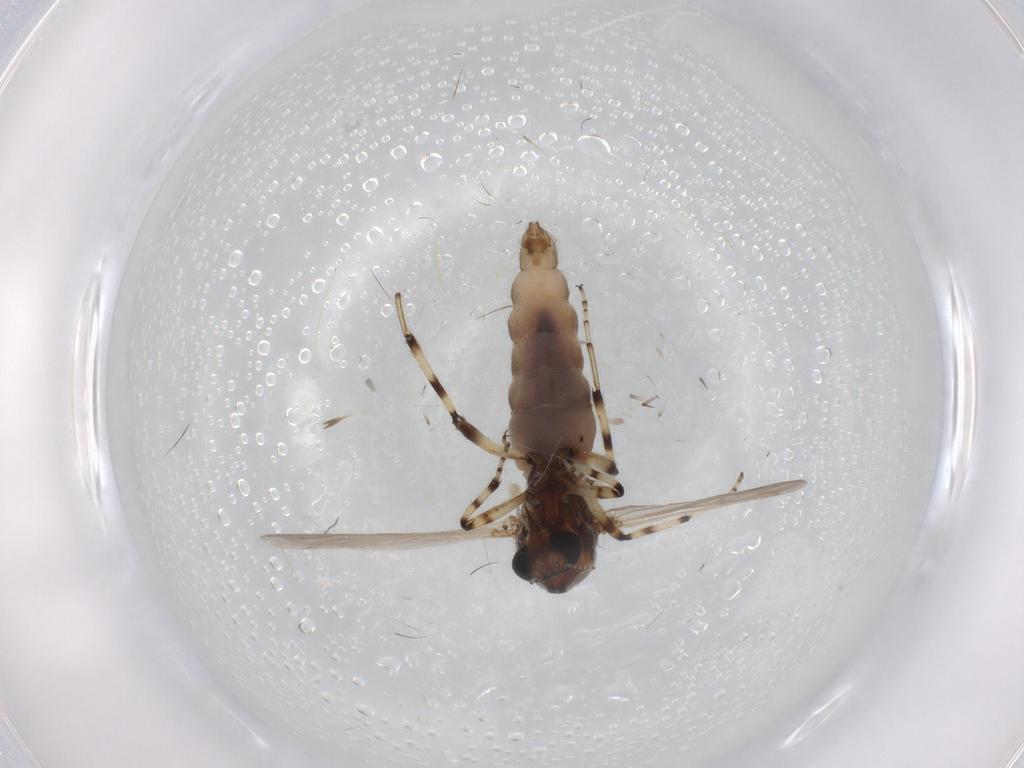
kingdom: Animalia
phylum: Arthropoda
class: Insecta
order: Diptera
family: Ceratopogonidae
